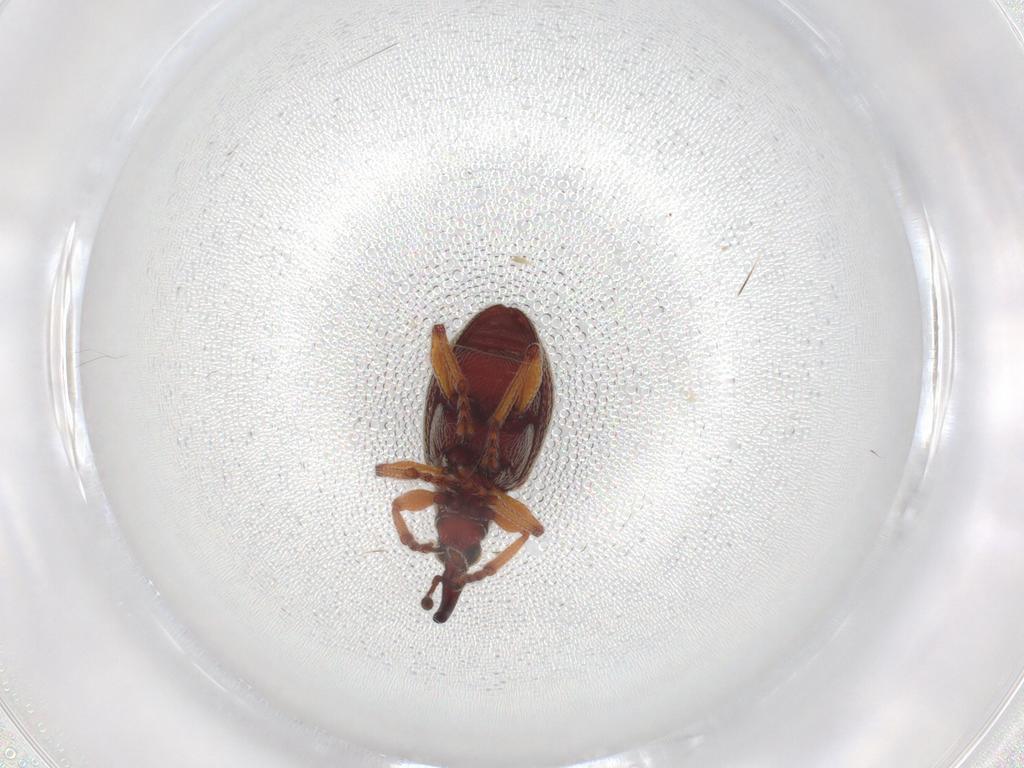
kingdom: Animalia
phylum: Arthropoda
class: Insecta
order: Coleoptera
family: Brentidae
